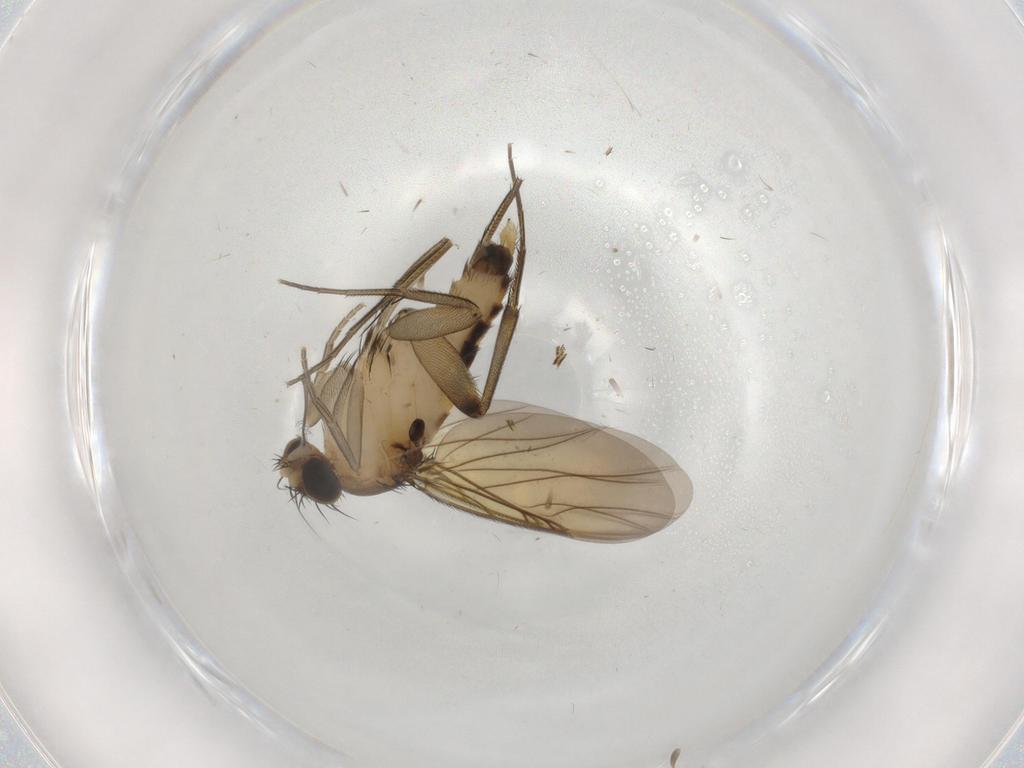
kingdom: Animalia
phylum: Arthropoda
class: Insecta
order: Diptera
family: Chironomidae
